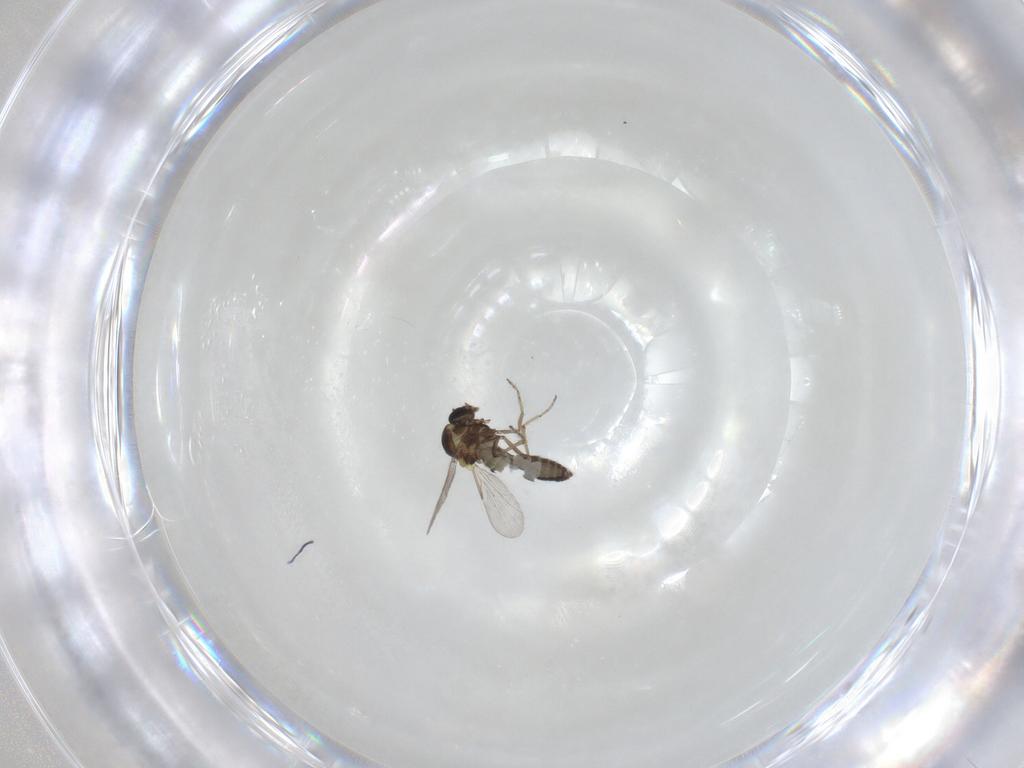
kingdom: Animalia
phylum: Arthropoda
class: Insecta
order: Diptera
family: Ceratopogonidae
